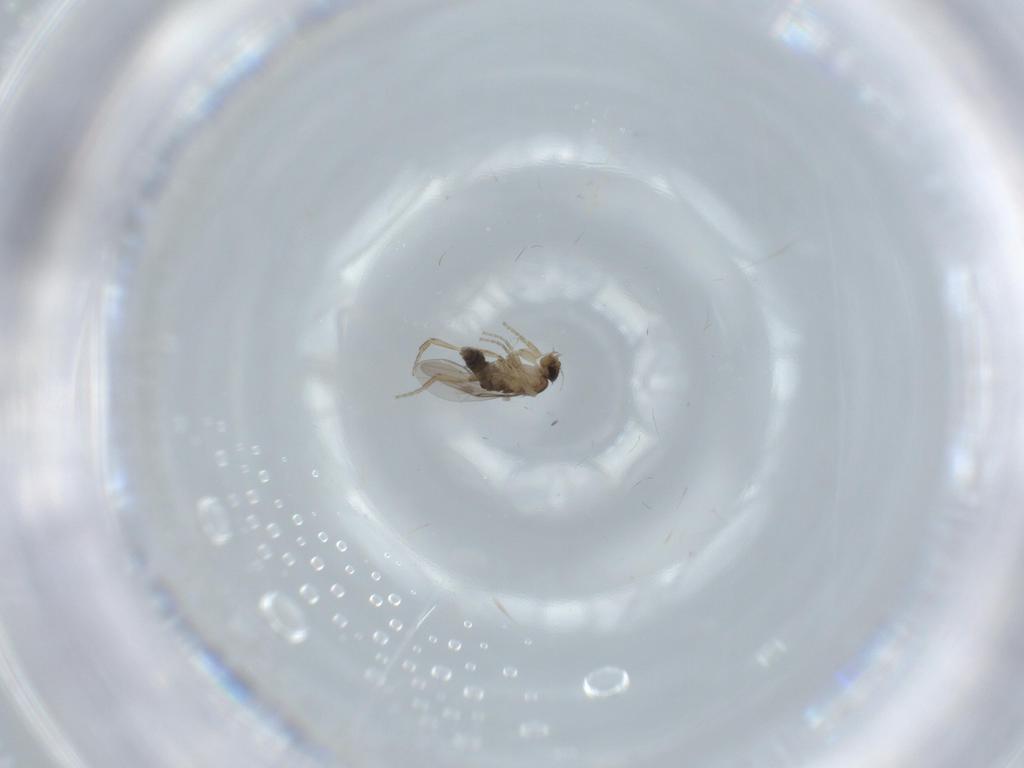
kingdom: Animalia
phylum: Arthropoda
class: Insecta
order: Diptera
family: Phoridae
